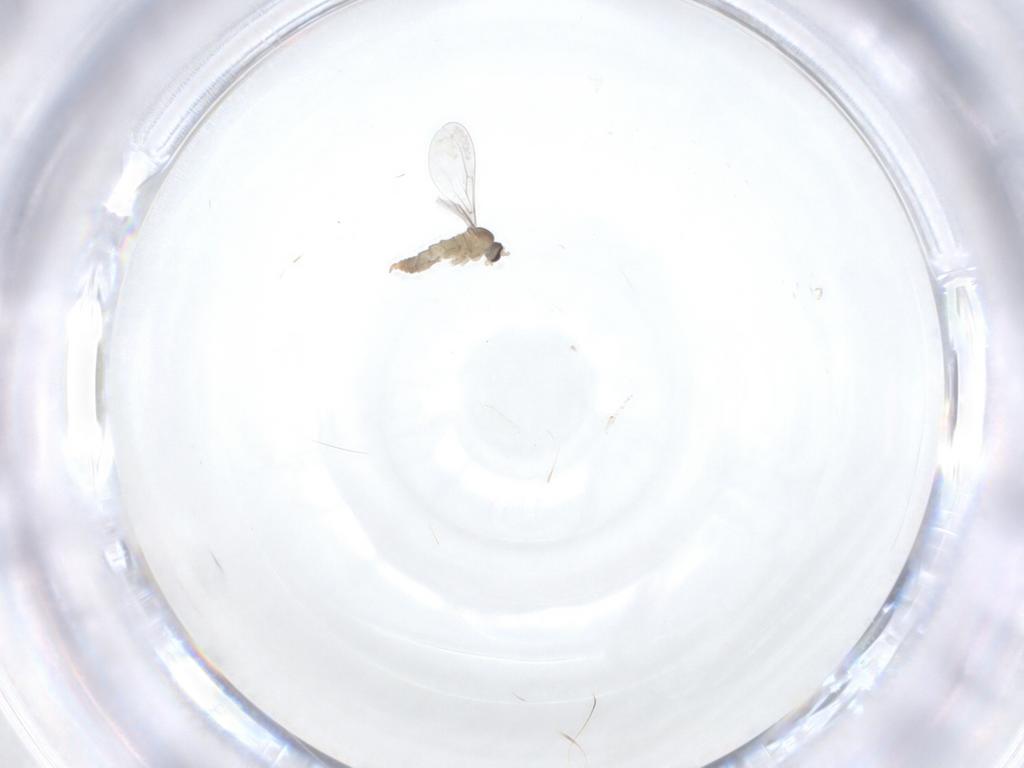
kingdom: Animalia
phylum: Arthropoda
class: Insecta
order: Diptera
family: Cecidomyiidae
